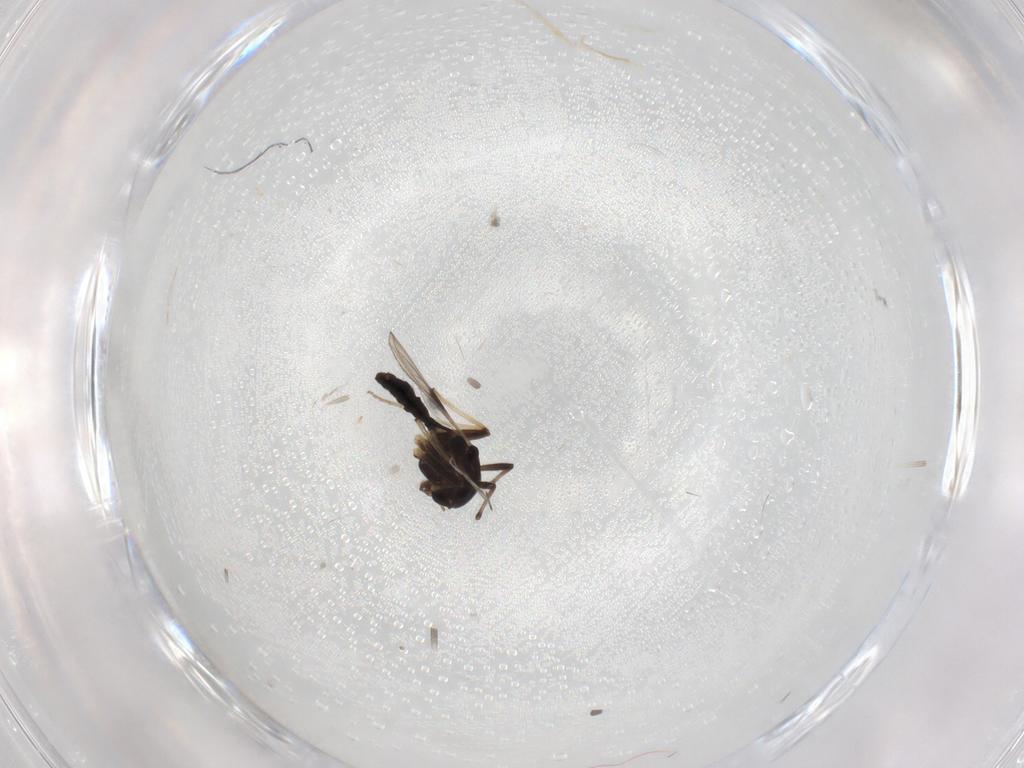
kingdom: Animalia
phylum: Arthropoda
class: Insecta
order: Diptera
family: Chironomidae
